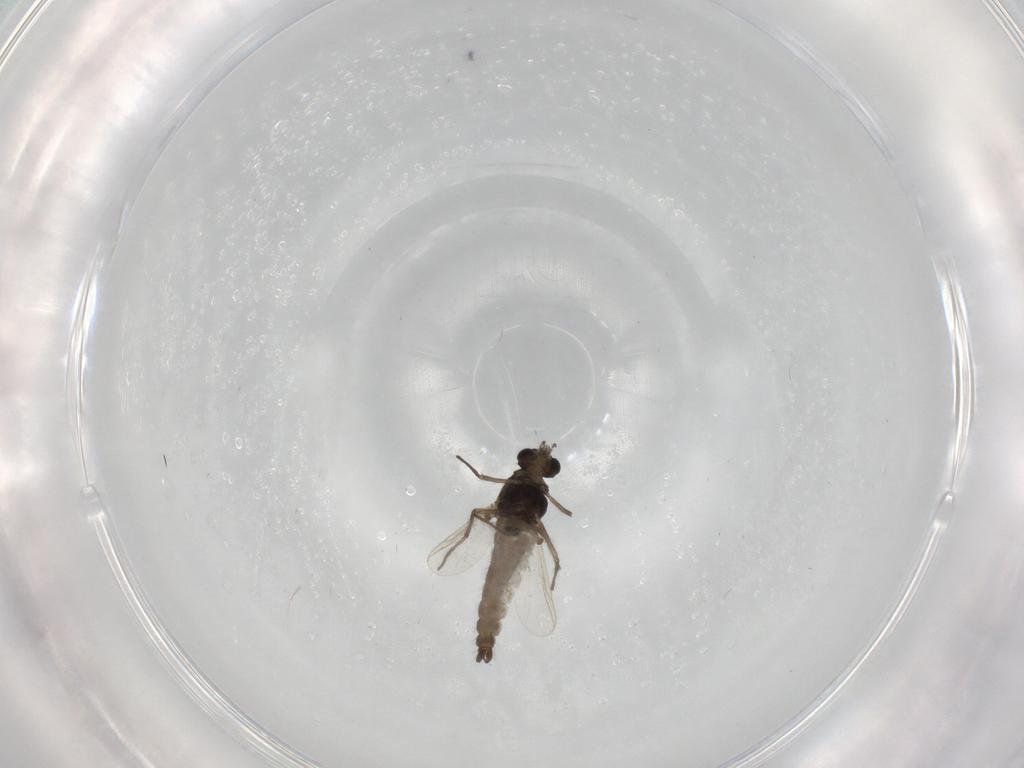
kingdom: Animalia
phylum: Arthropoda
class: Insecta
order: Diptera
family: Chironomidae
